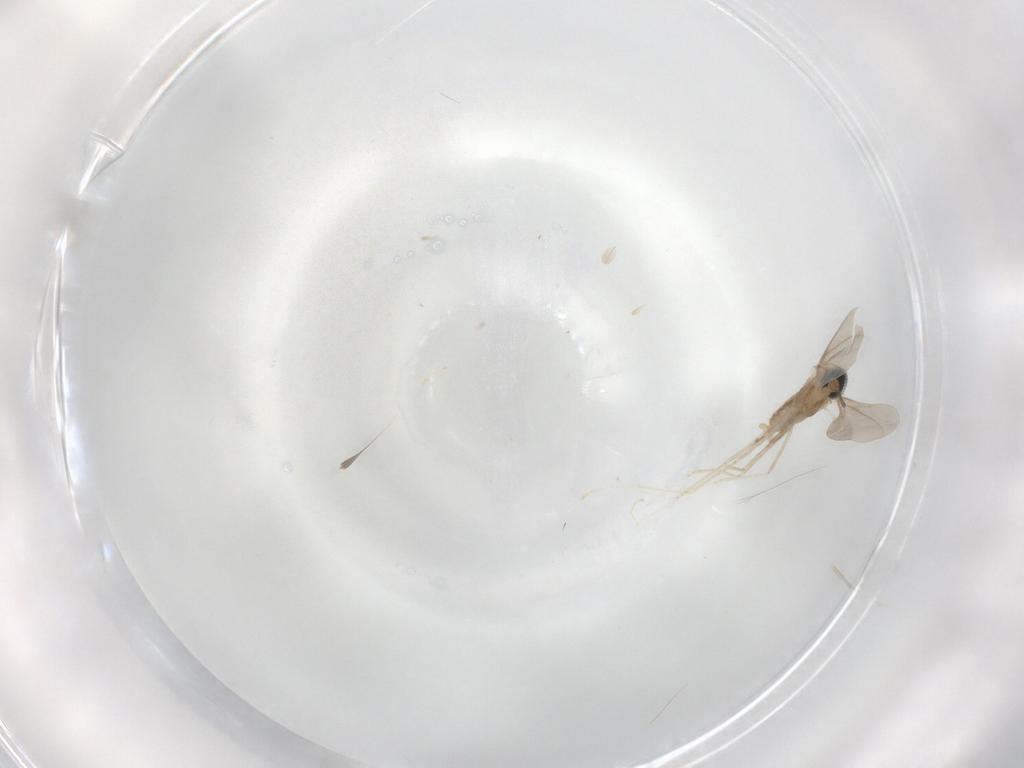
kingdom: Animalia
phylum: Arthropoda
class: Insecta
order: Diptera
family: Cecidomyiidae
